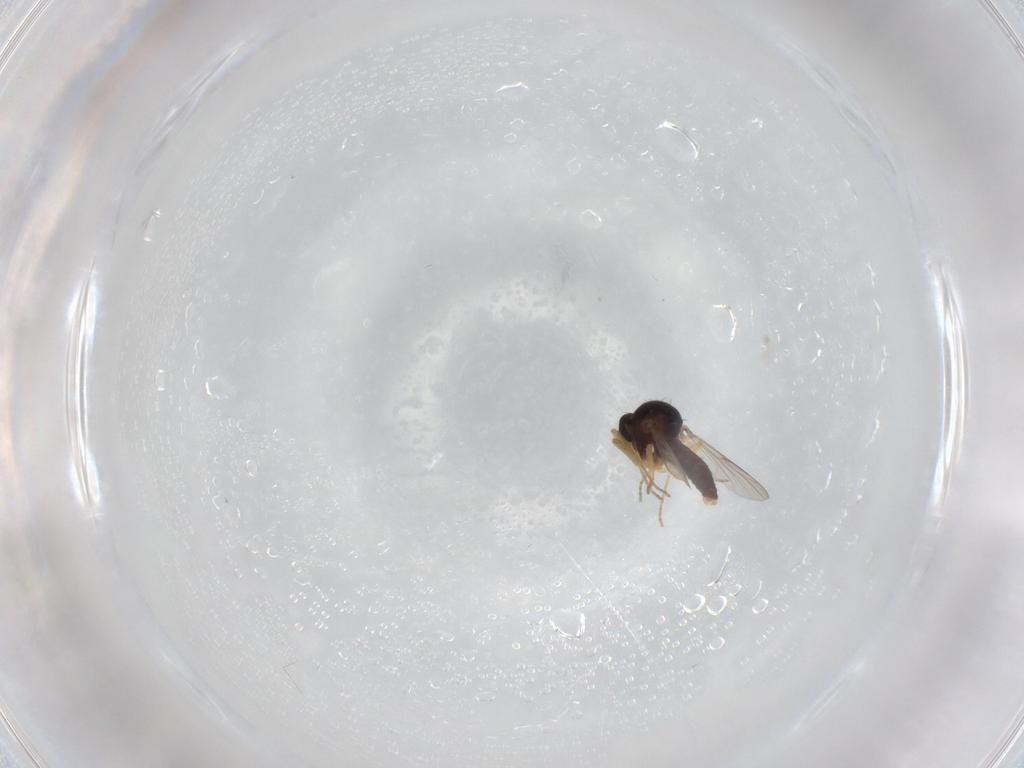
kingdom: Animalia
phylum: Arthropoda
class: Insecta
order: Diptera
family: Ceratopogonidae
